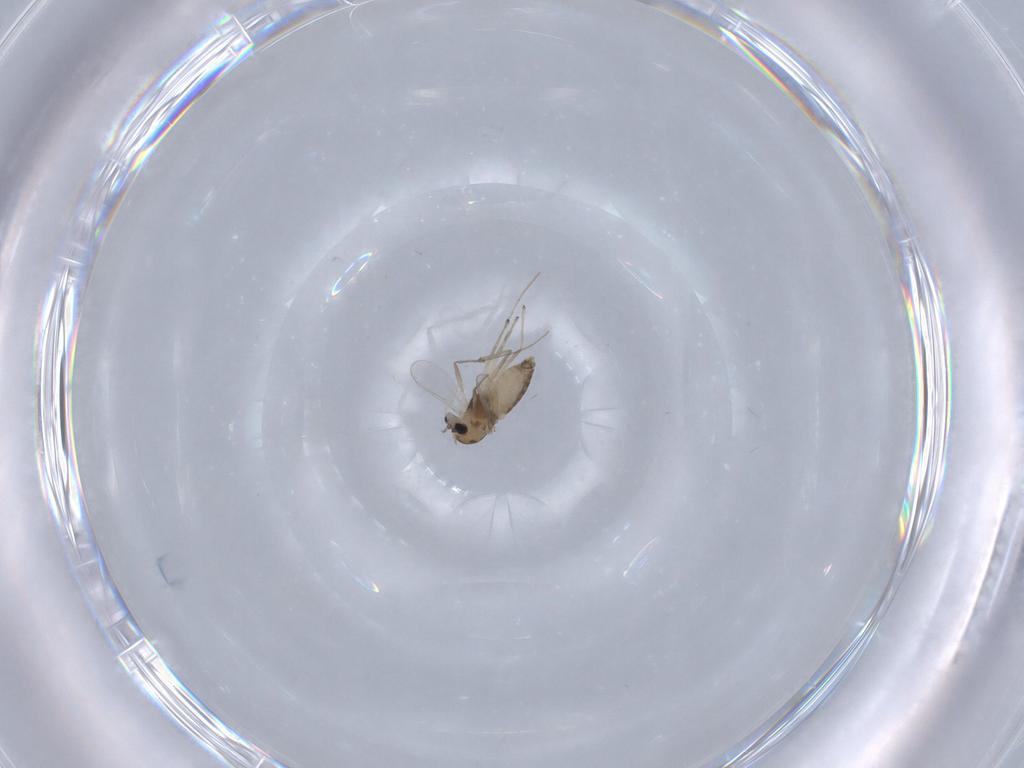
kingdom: Animalia
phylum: Arthropoda
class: Insecta
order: Diptera
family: Chironomidae
